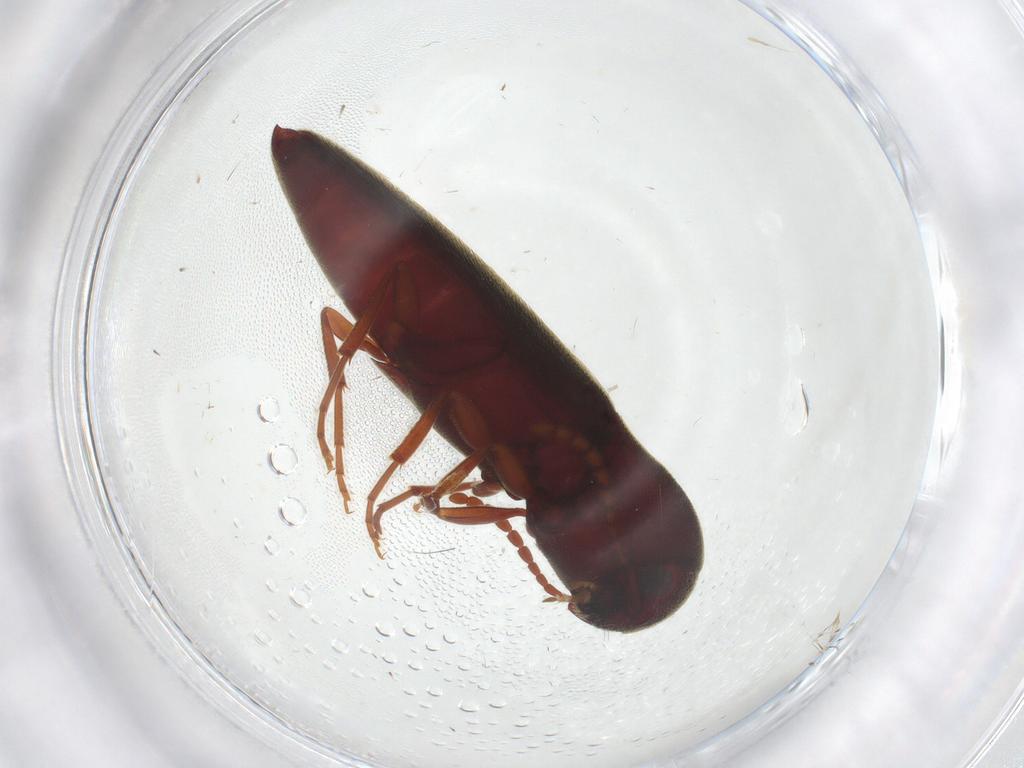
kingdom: Animalia
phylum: Arthropoda
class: Insecta
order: Coleoptera
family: Eucnemidae
